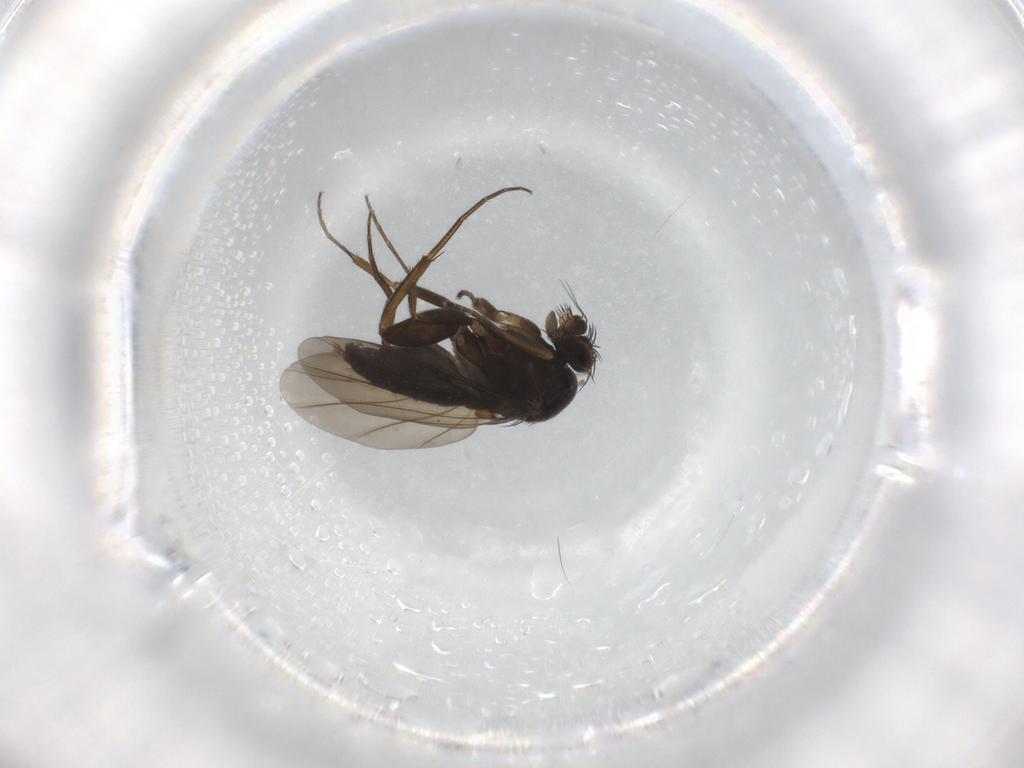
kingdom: Animalia
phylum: Arthropoda
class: Insecta
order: Diptera
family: Phoridae
